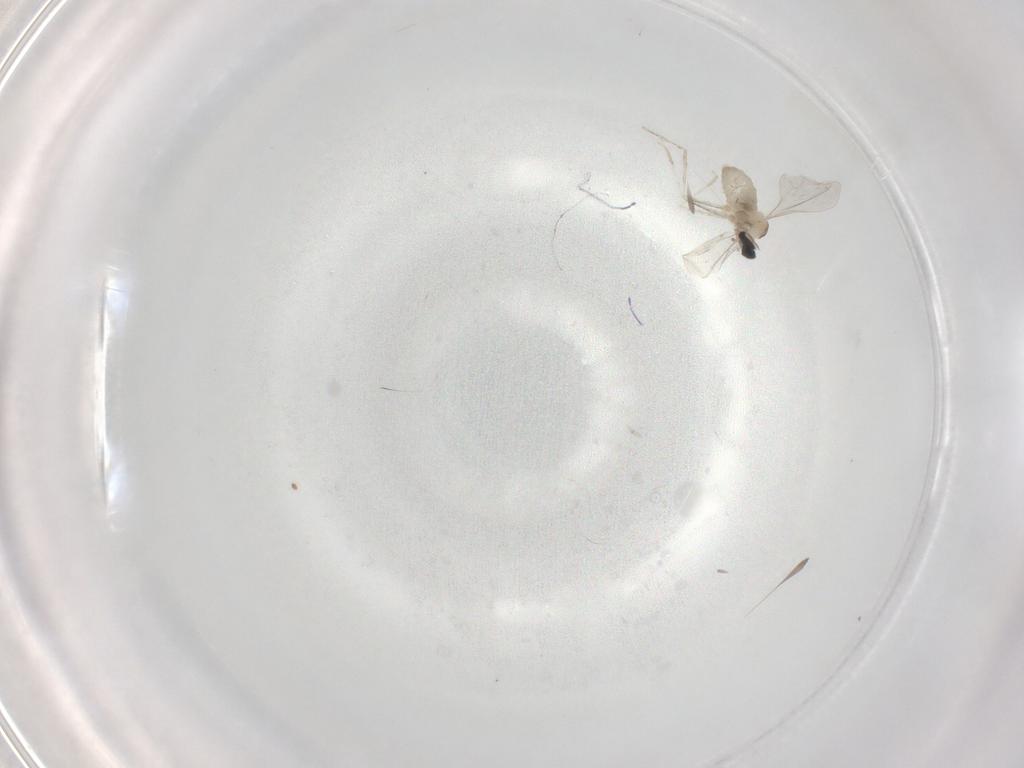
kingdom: Animalia
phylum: Arthropoda
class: Insecta
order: Diptera
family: Cecidomyiidae
